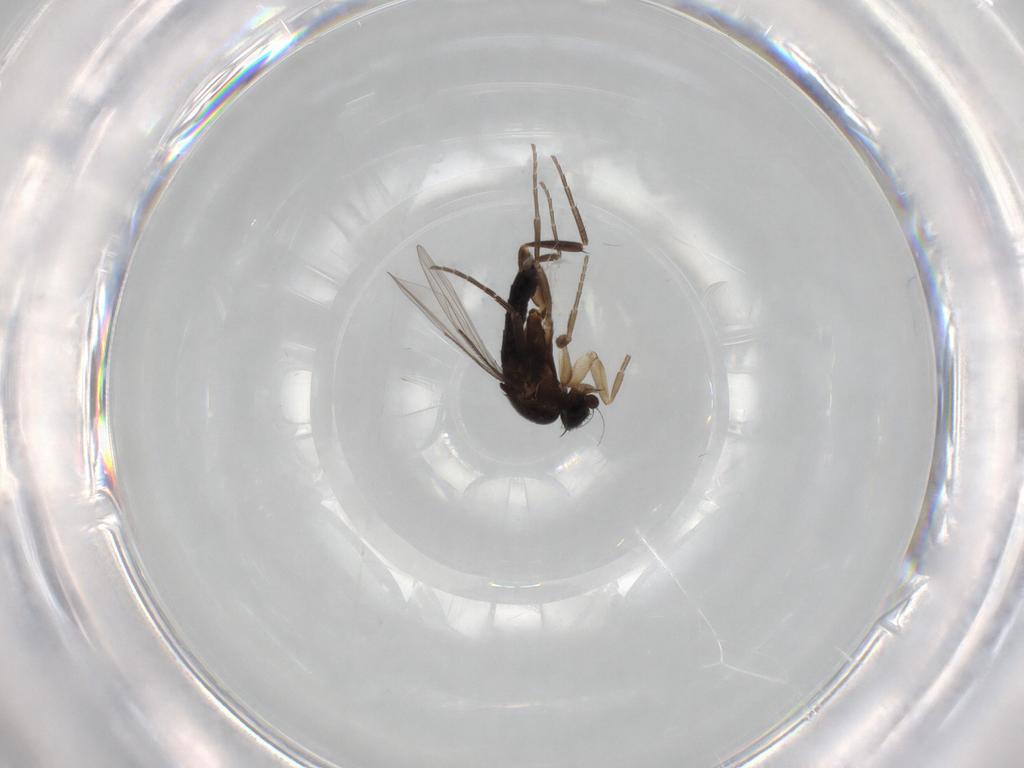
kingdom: Animalia
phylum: Arthropoda
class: Insecta
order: Diptera
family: Phoridae
